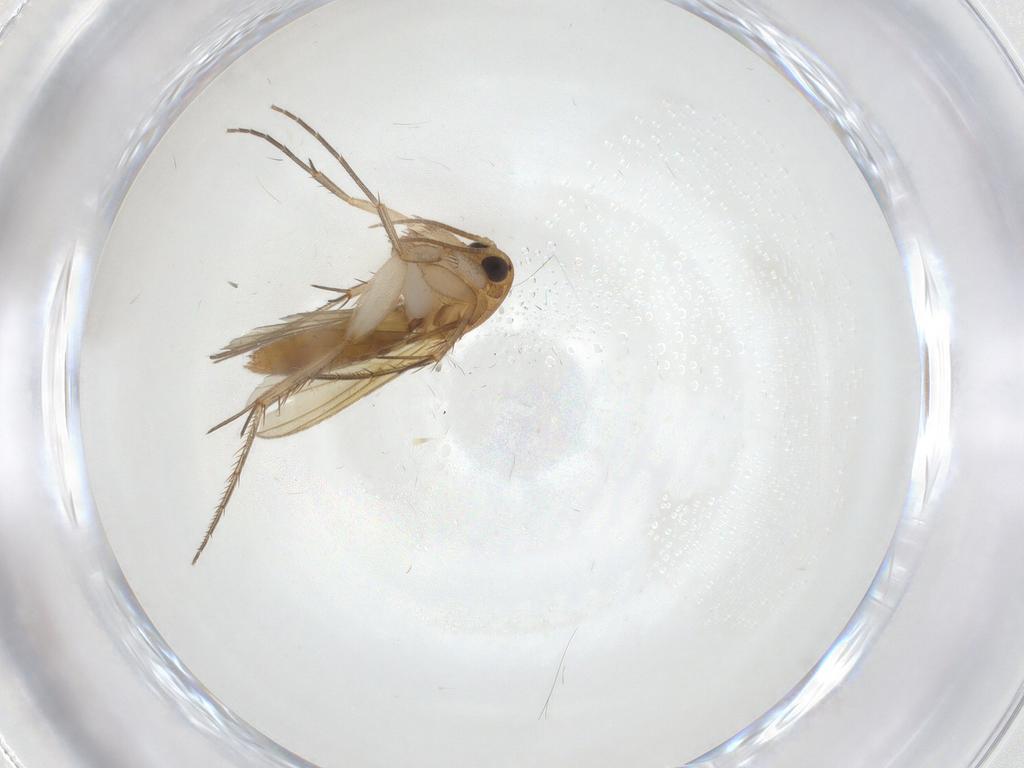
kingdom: Animalia
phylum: Arthropoda
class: Insecta
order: Diptera
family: Mycetophilidae
